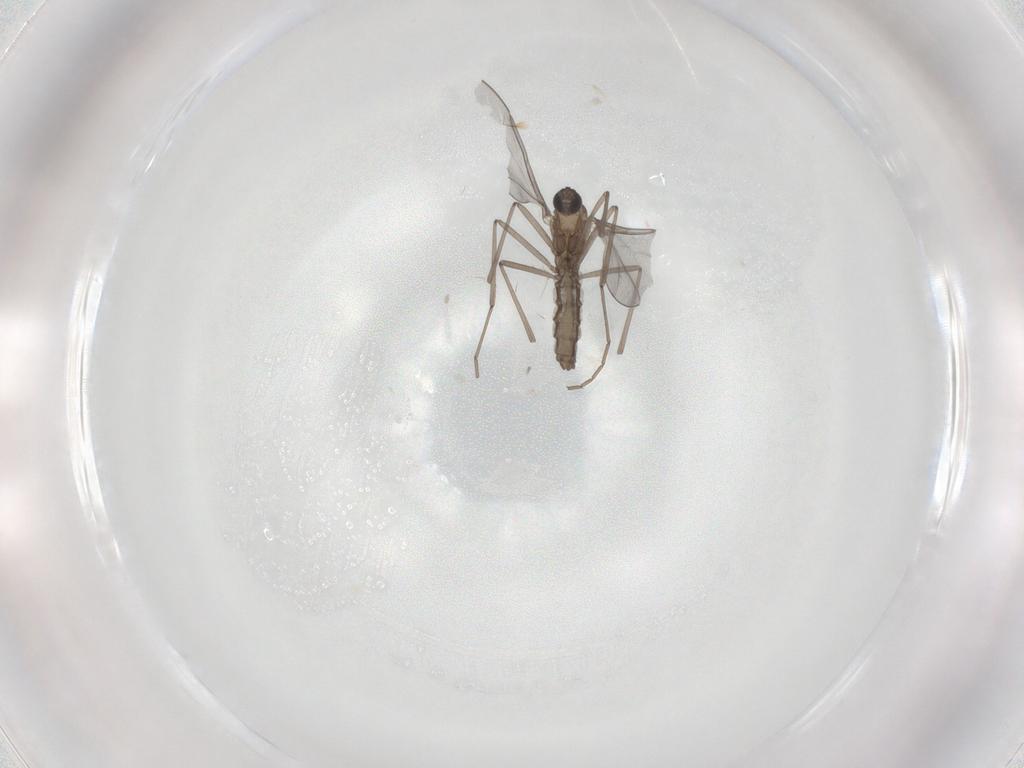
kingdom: Animalia
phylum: Arthropoda
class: Insecta
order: Diptera
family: Cecidomyiidae
